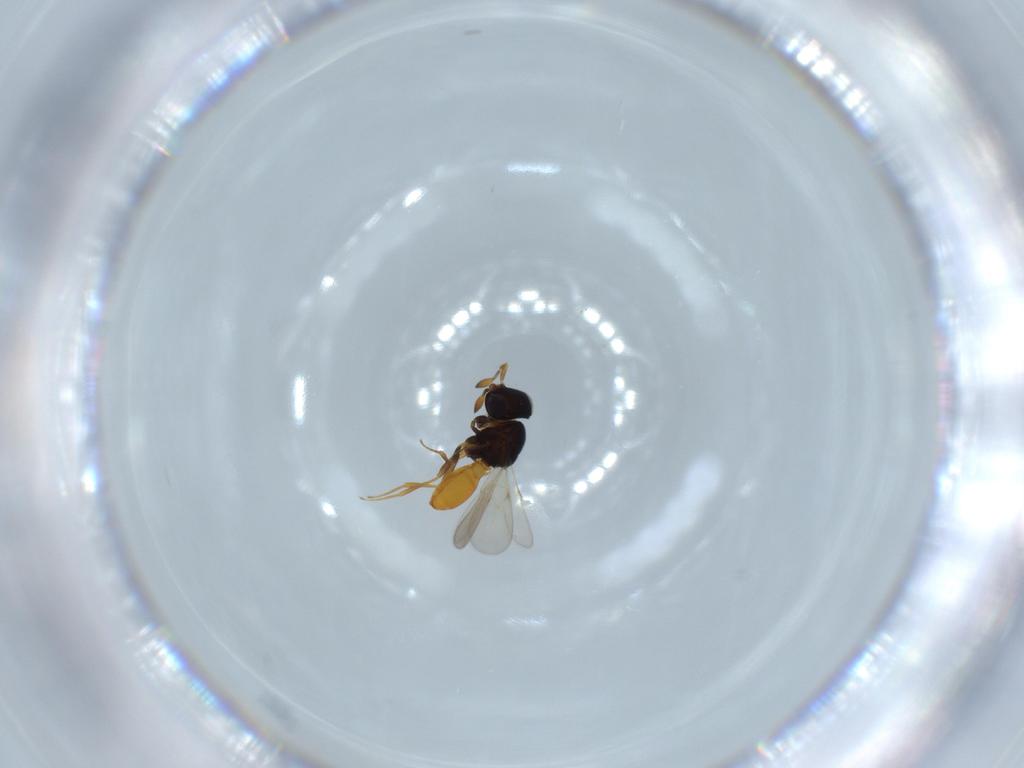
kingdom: Animalia
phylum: Arthropoda
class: Insecta
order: Hymenoptera
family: Scelionidae
